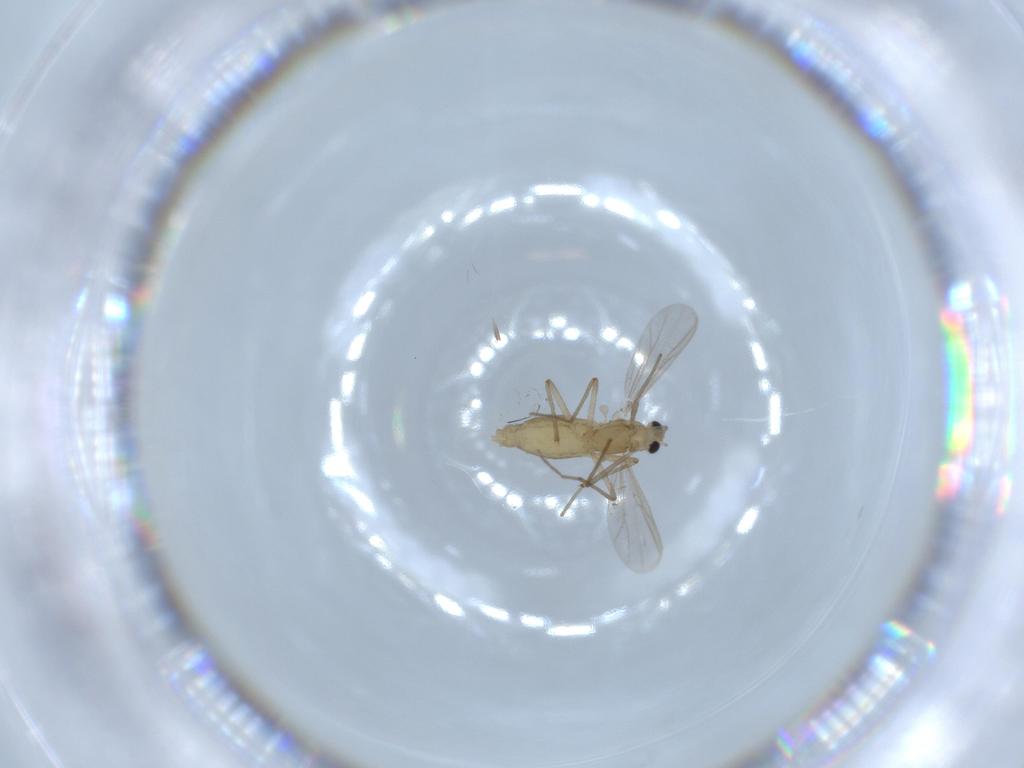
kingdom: Animalia
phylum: Arthropoda
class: Insecta
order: Diptera
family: Chironomidae
